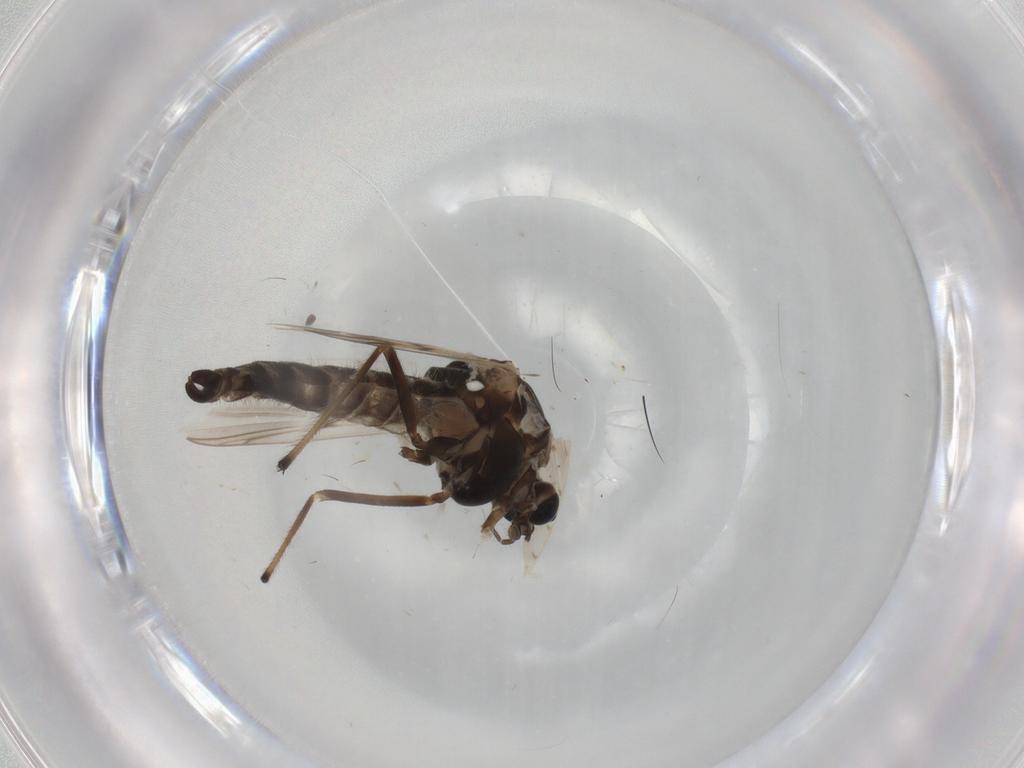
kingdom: Animalia
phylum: Arthropoda
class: Insecta
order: Diptera
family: Chironomidae
